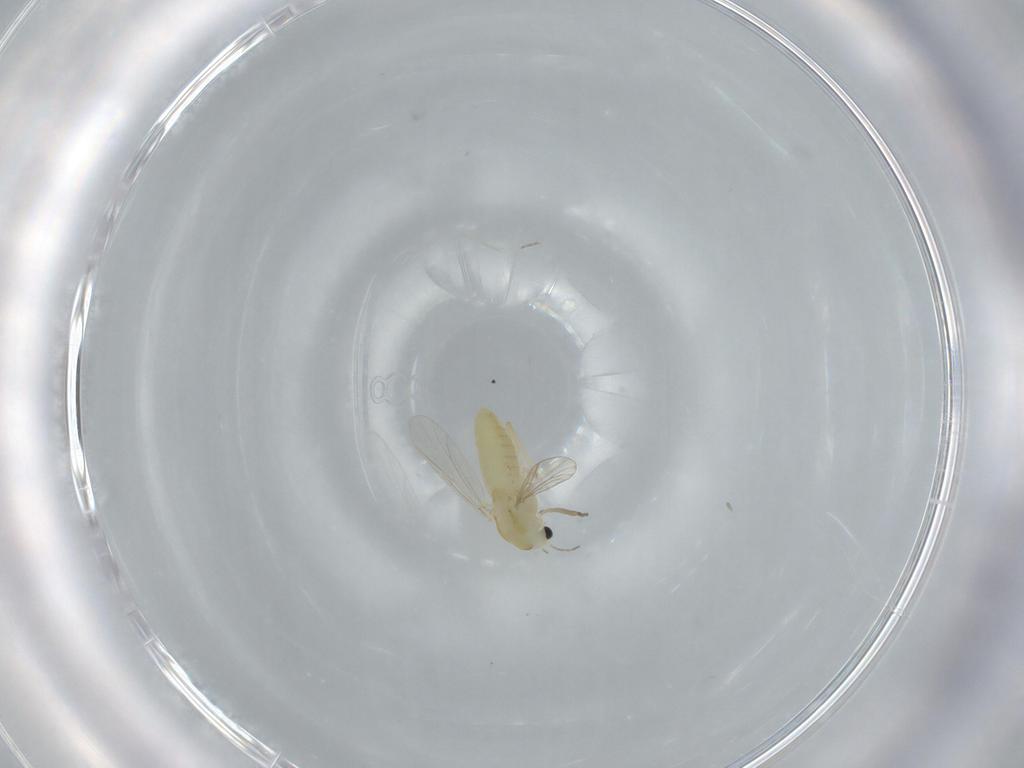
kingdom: Animalia
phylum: Arthropoda
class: Insecta
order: Diptera
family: Chironomidae
